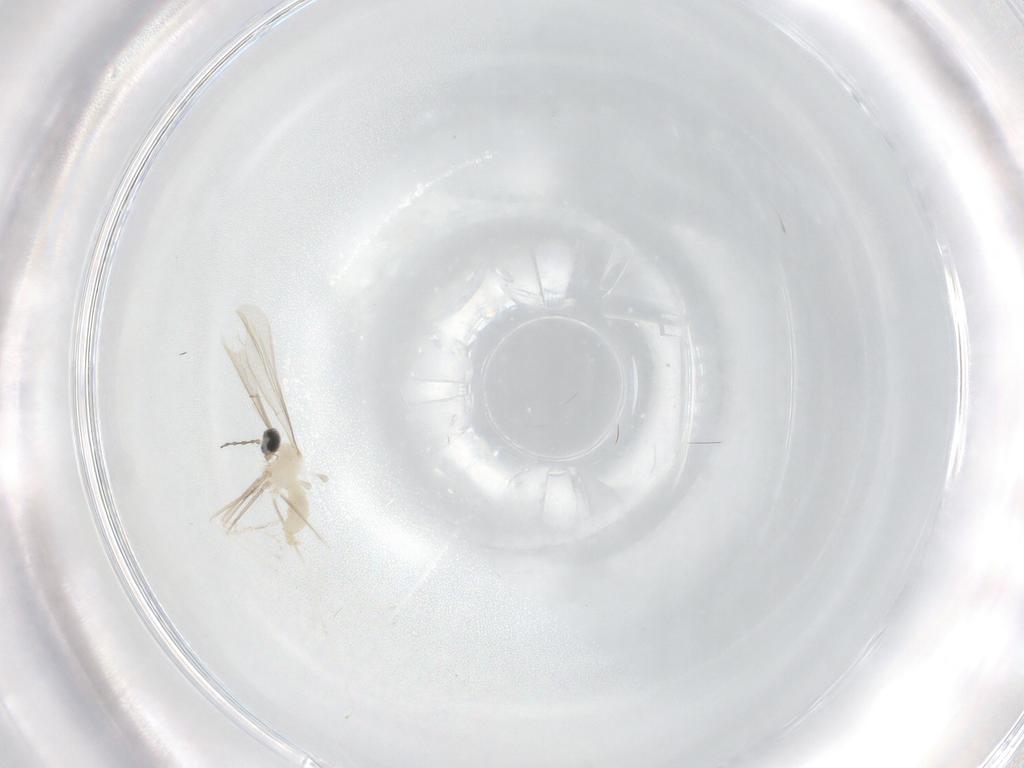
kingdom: Animalia
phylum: Arthropoda
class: Insecta
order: Diptera
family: Cecidomyiidae
